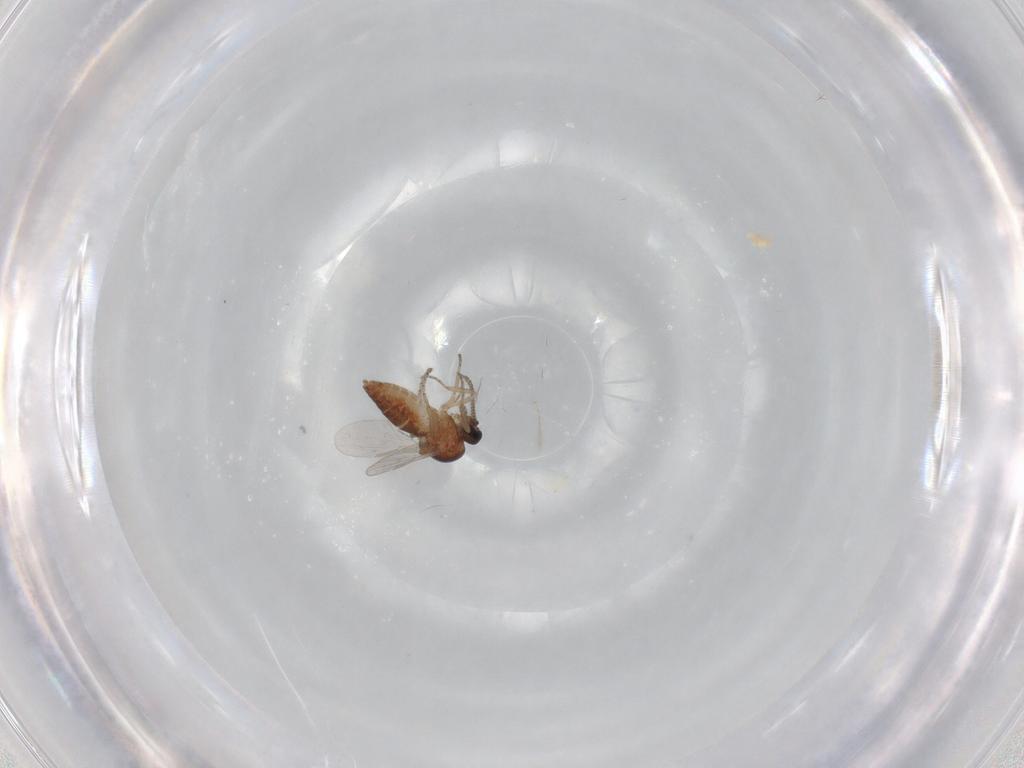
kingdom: Animalia
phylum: Arthropoda
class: Insecta
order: Diptera
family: Ceratopogonidae
